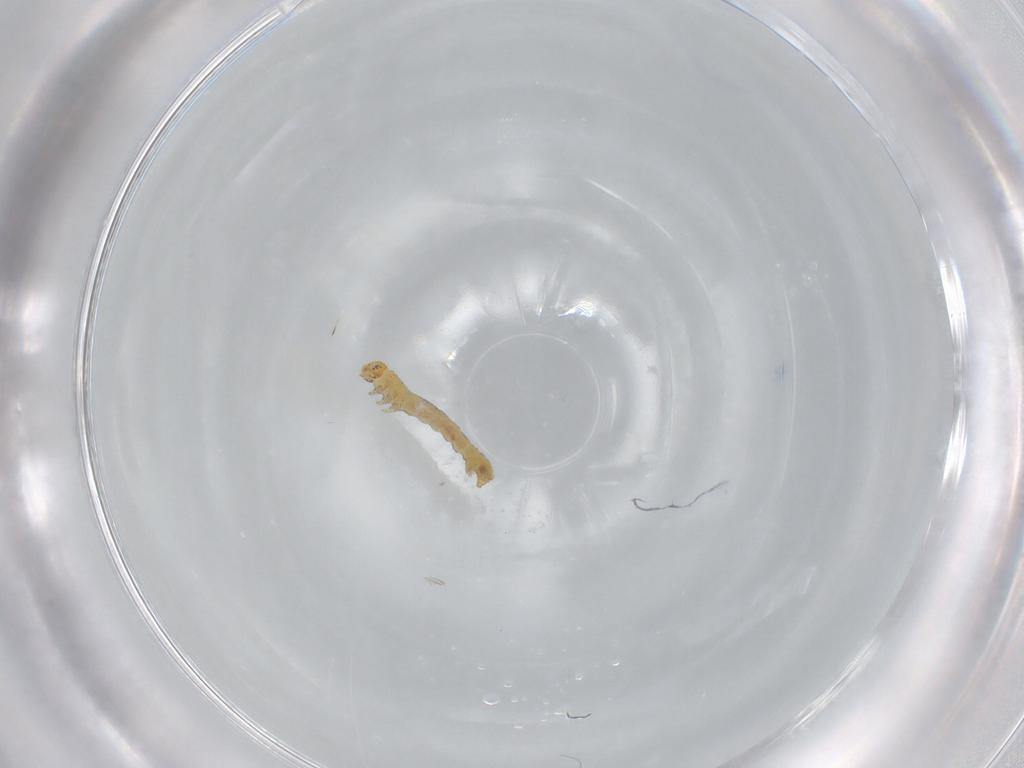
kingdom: Animalia
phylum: Arthropoda
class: Insecta
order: Lepidoptera
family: Geometridae
